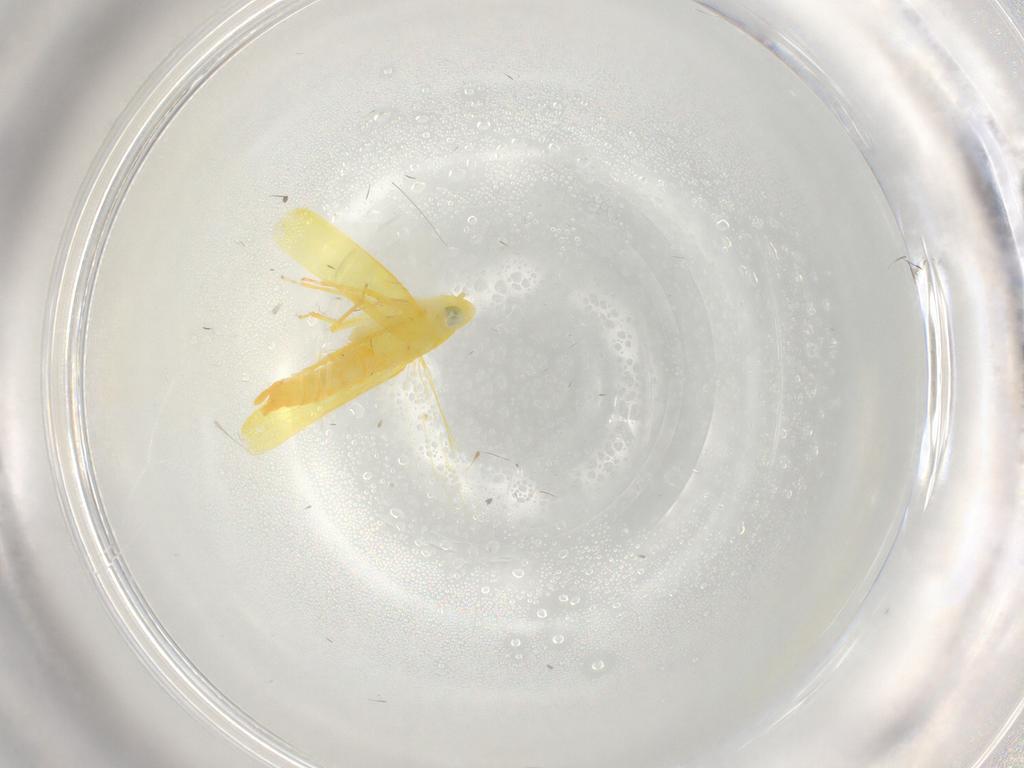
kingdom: Animalia
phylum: Arthropoda
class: Insecta
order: Hemiptera
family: Cicadellidae
